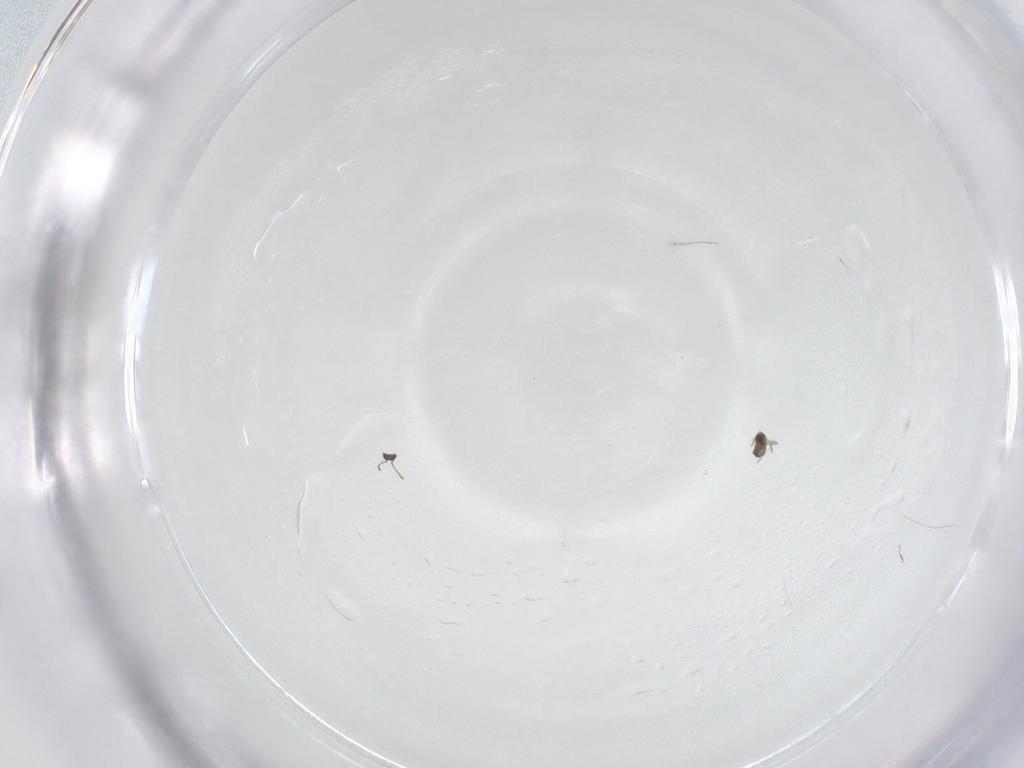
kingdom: Animalia
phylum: Arthropoda
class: Insecta
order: Hymenoptera
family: Mymaridae
